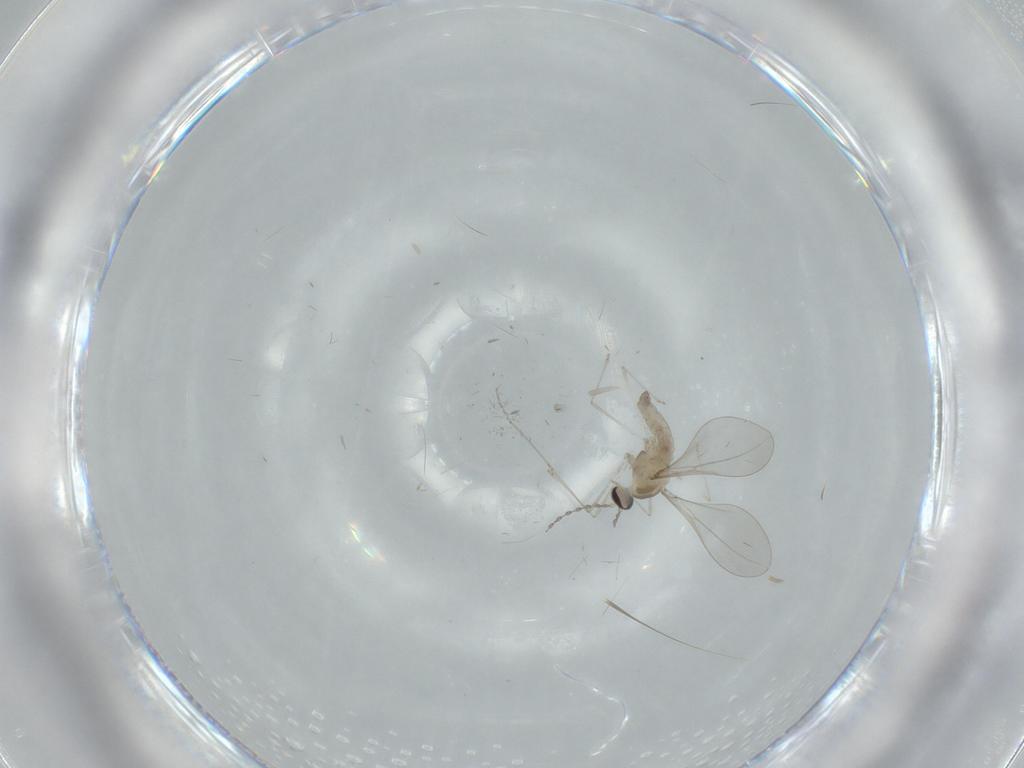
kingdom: Animalia
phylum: Arthropoda
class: Insecta
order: Diptera
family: Cecidomyiidae
